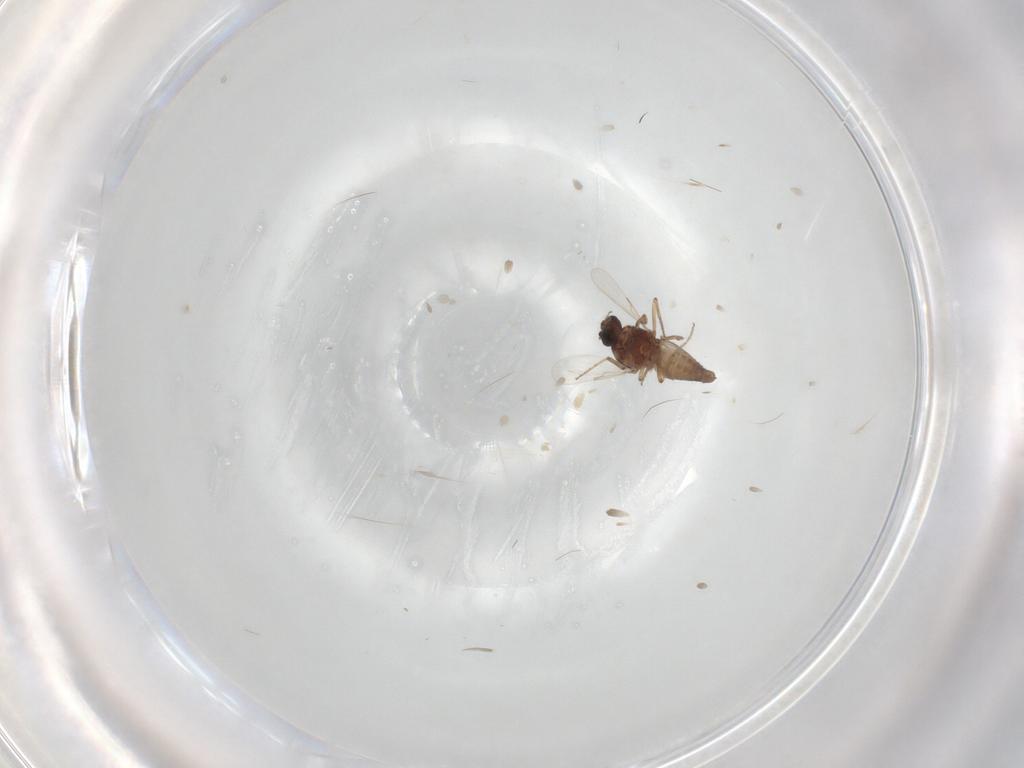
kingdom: Animalia
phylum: Arthropoda
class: Insecta
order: Diptera
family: Ceratopogonidae
